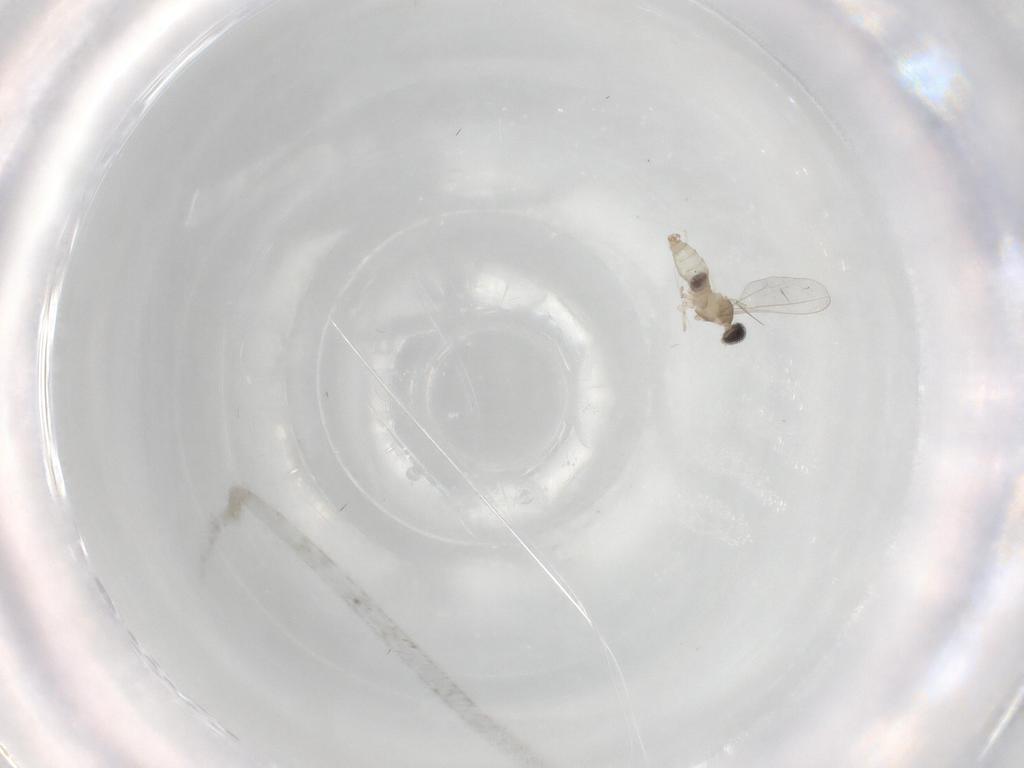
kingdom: Animalia
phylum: Arthropoda
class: Insecta
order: Diptera
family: Cecidomyiidae
